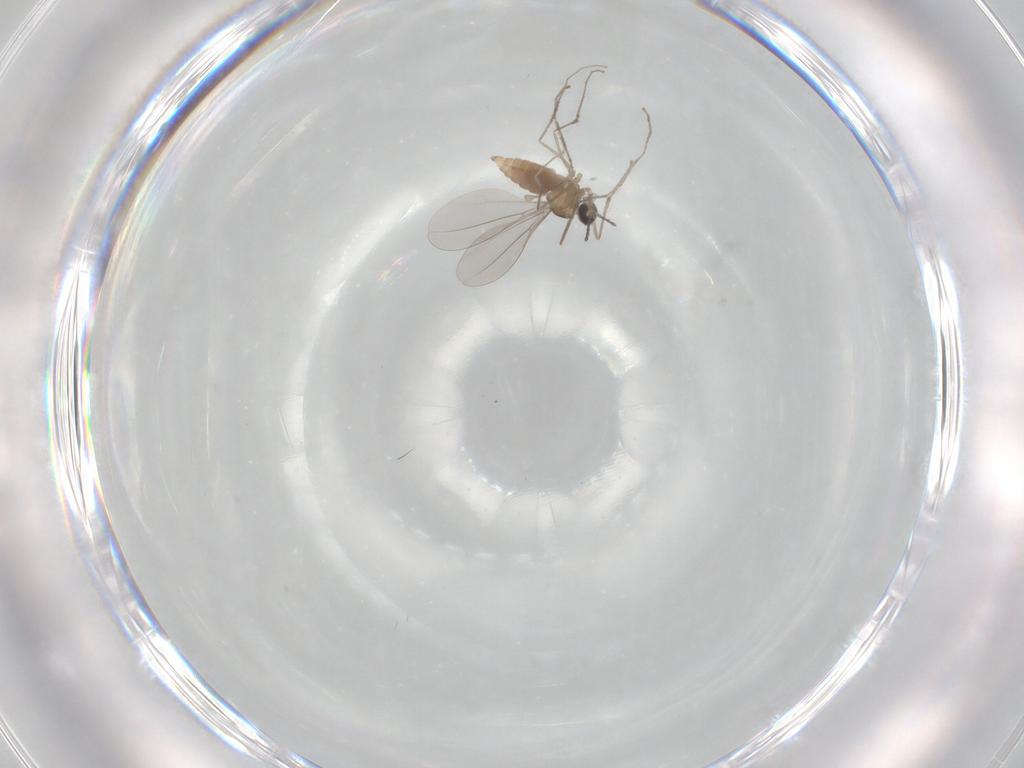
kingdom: Animalia
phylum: Arthropoda
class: Insecta
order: Diptera
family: Cecidomyiidae
